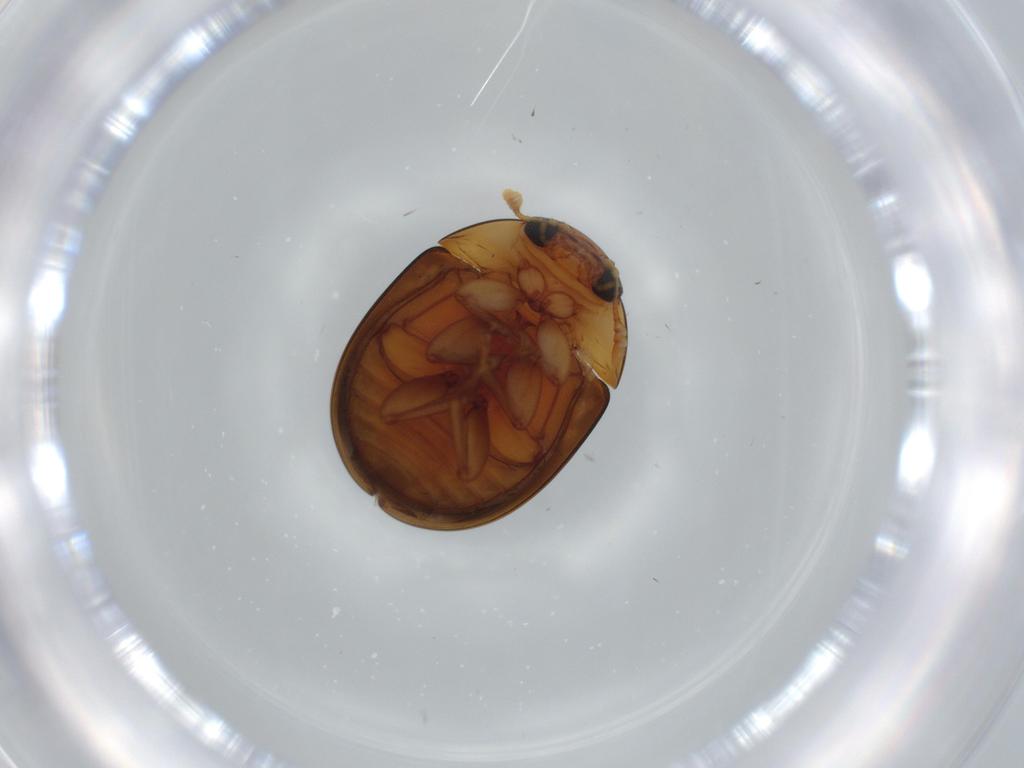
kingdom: Animalia
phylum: Arthropoda
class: Insecta
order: Coleoptera
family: Phalacridae
